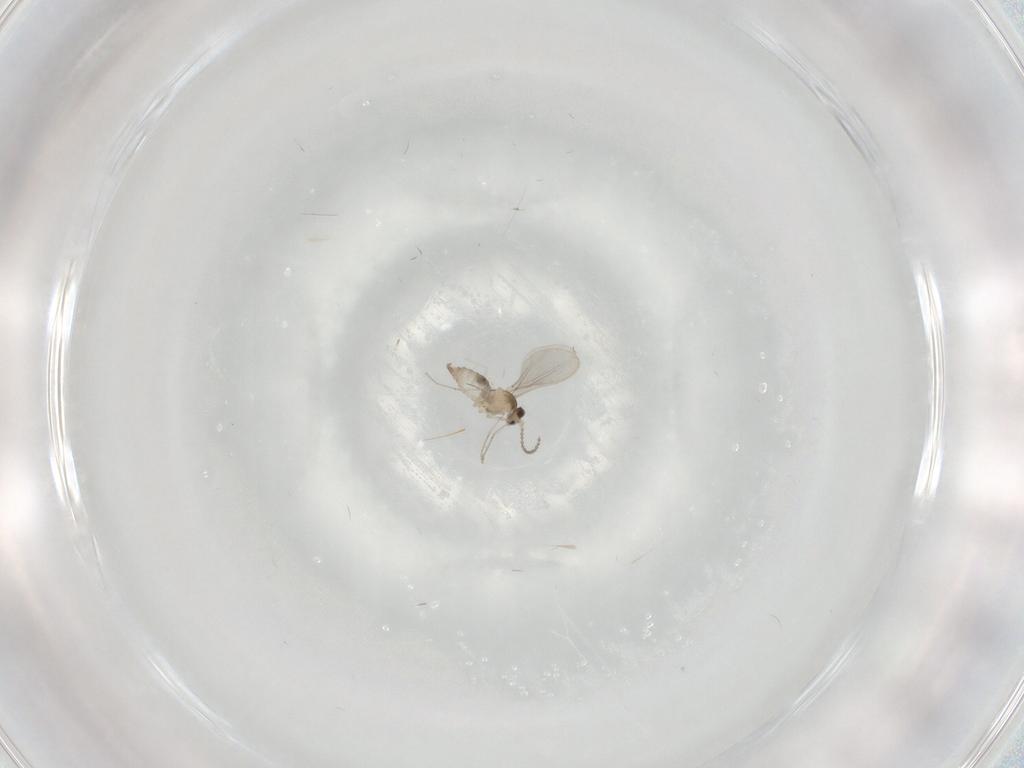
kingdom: Animalia
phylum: Arthropoda
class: Insecta
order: Diptera
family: Cecidomyiidae
